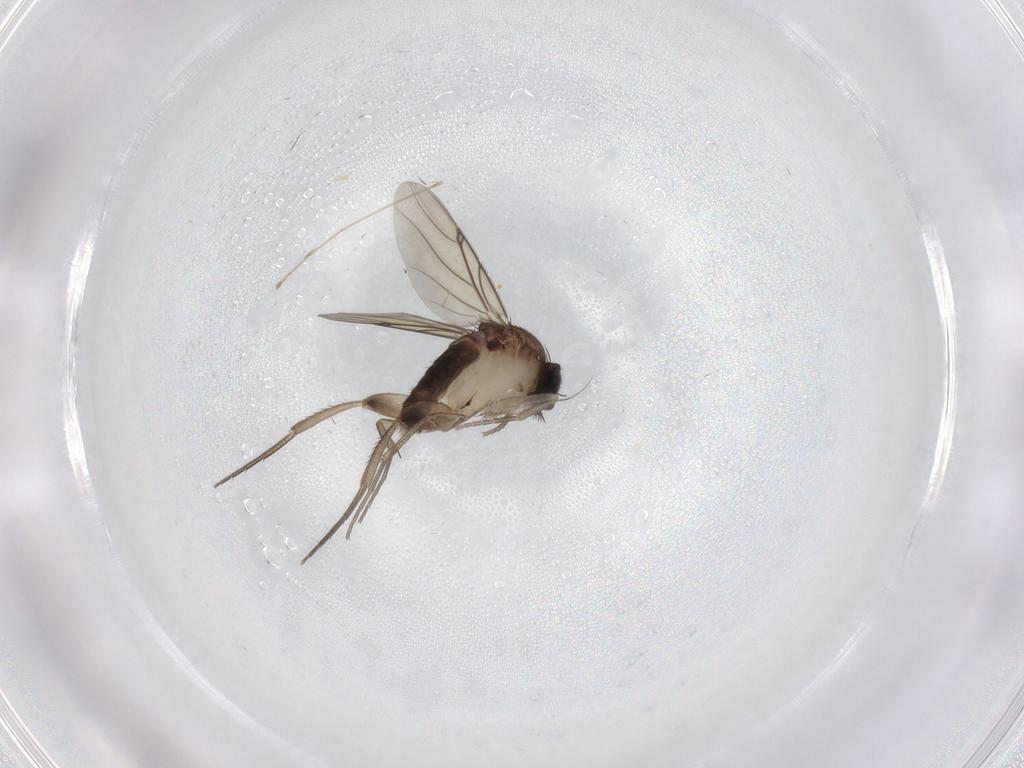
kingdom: Animalia
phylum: Arthropoda
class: Insecta
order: Diptera
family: Cecidomyiidae
